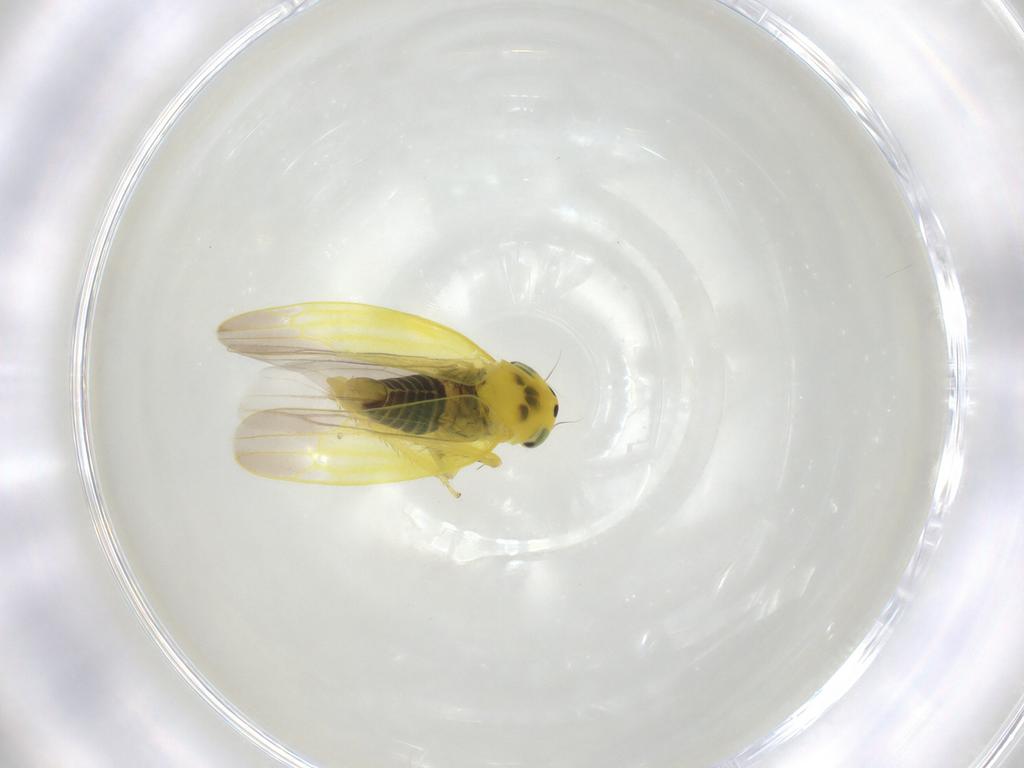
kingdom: Animalia
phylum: Arthropoda
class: Insecta
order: Hemiptera
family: Cicadellidae
